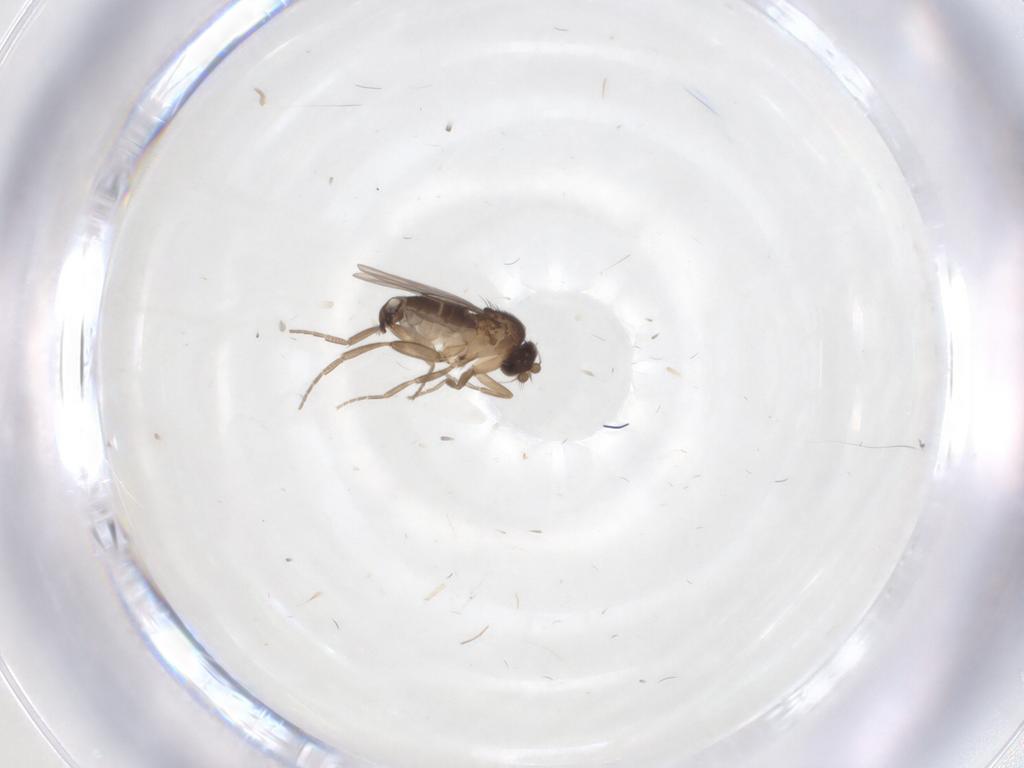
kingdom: Animalia
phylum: Arthropoda
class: Insecta
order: Diptera
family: Phoridae
